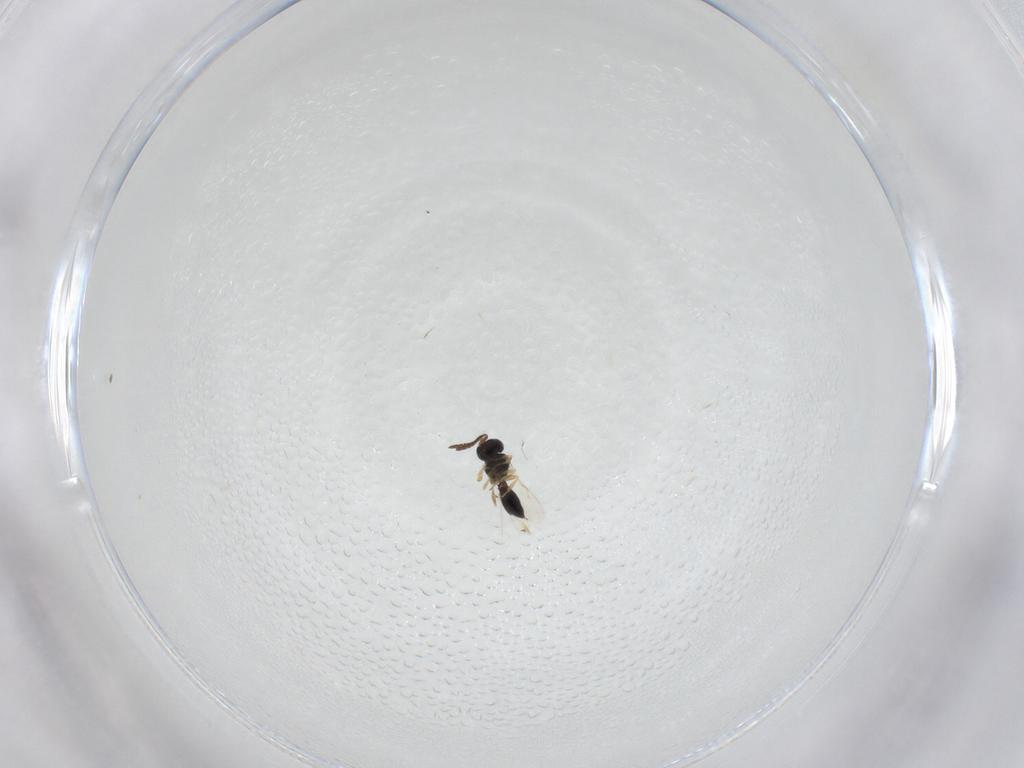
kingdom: Animalia
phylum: Arthropoda
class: Insecta
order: Hymenoptera
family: Scelionidae
